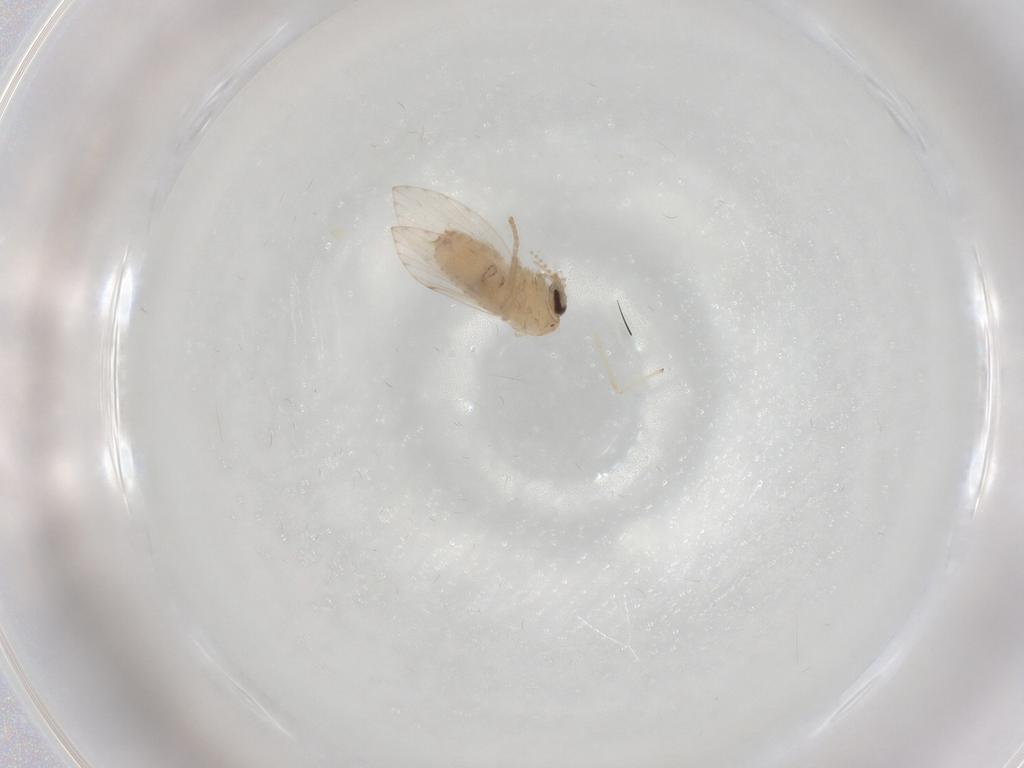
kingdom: Animalia
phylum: Arthropoda
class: Insecta
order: Diptera
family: Psychodidae
